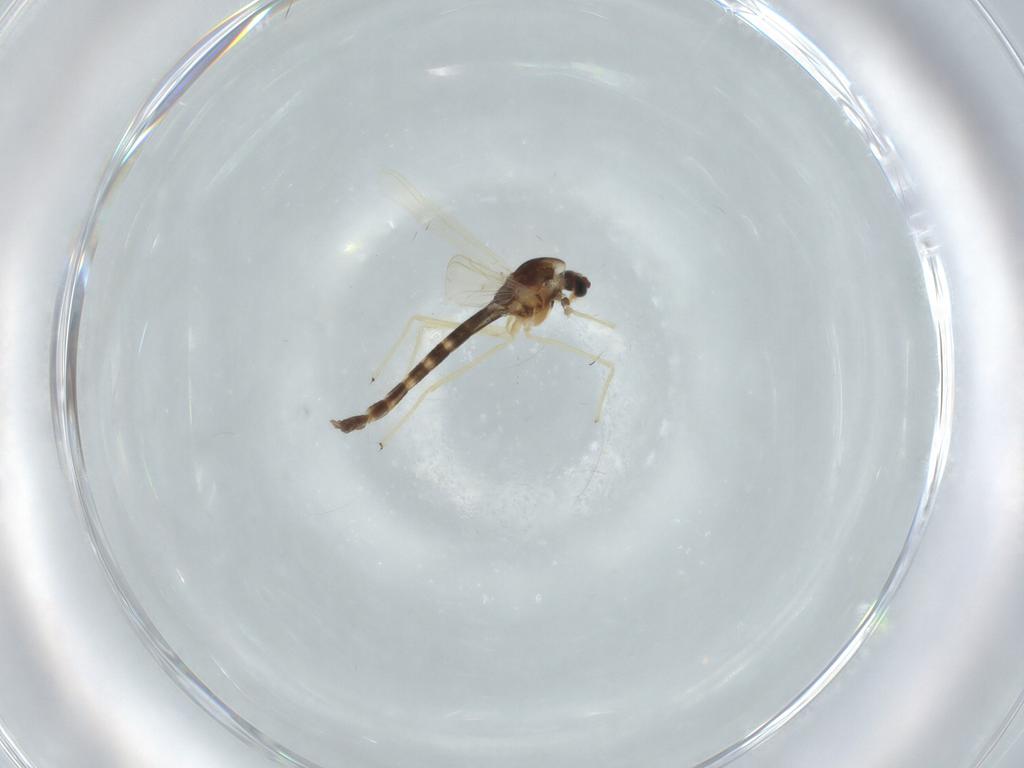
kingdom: Animalia
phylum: Arthropoda
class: Insecta
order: Diptera
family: Chironomidae
